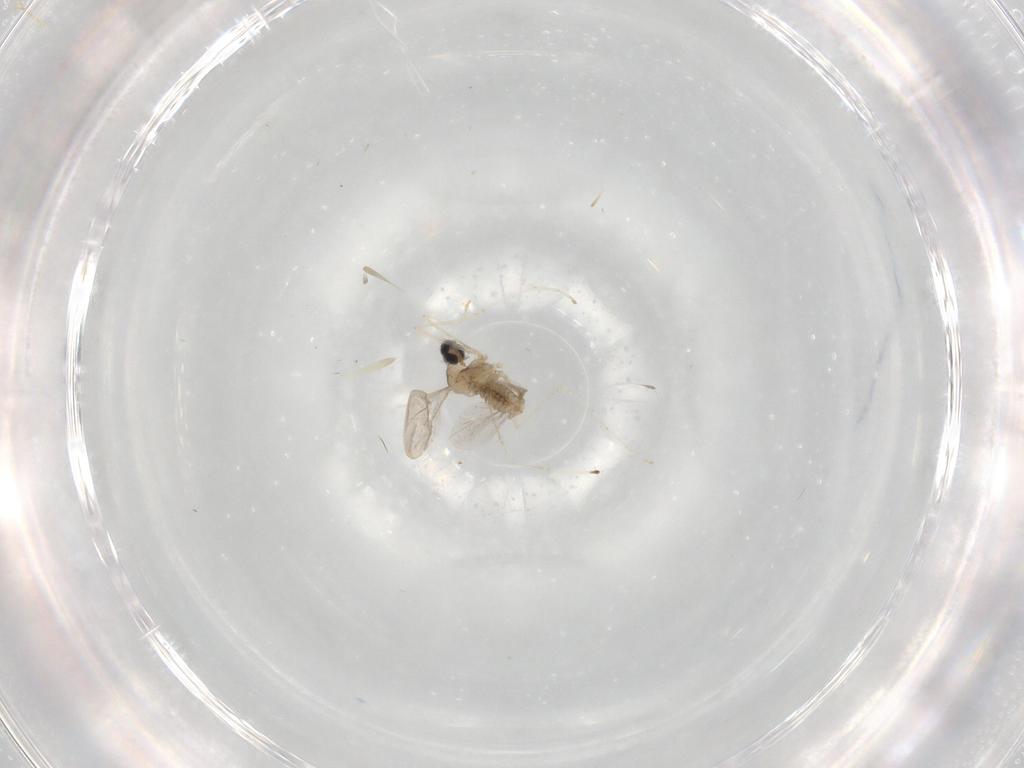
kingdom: Animalia
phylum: Arthropoda
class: Insecta
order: Diptera
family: Cecidomyiidae
